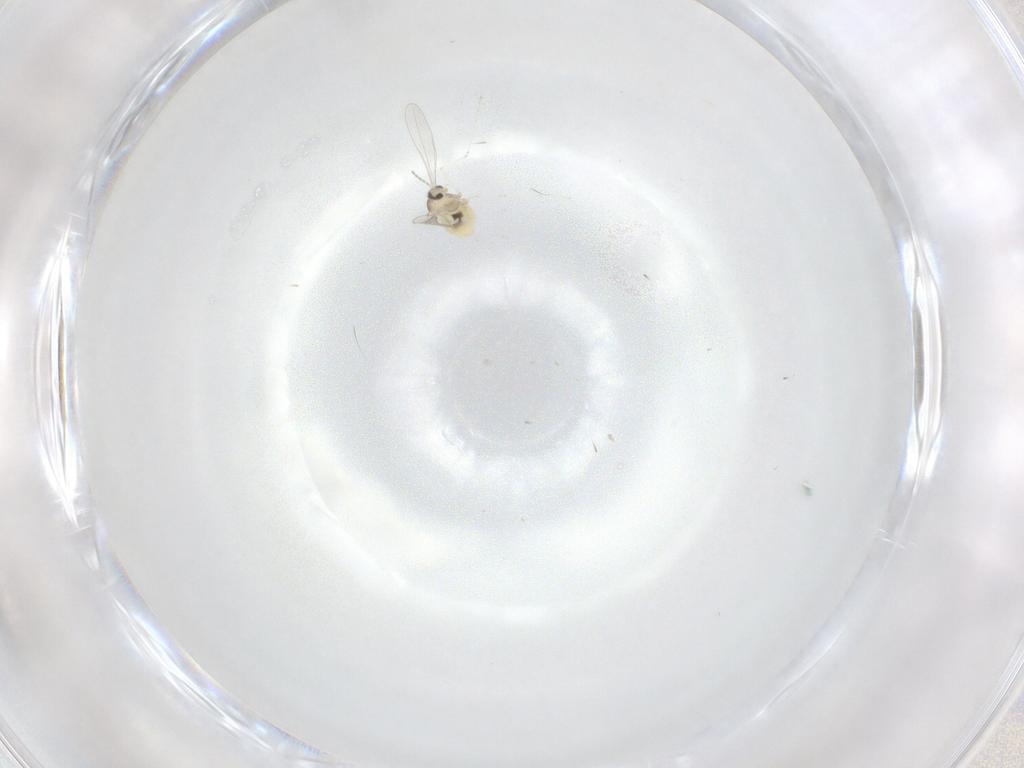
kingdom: Animalia
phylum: Arthropoda
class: Insecta
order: Diptera
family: Cecidomyiidae
